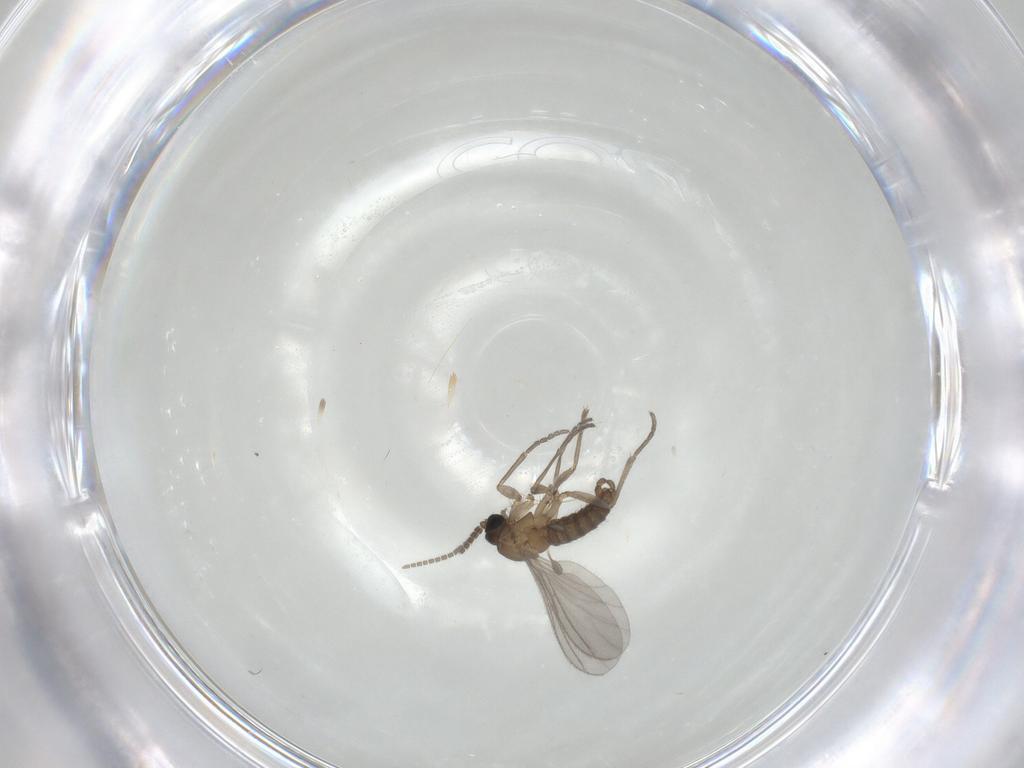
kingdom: Animalia
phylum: Arthropoda
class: Insecta
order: Diptera
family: Sciaridae
